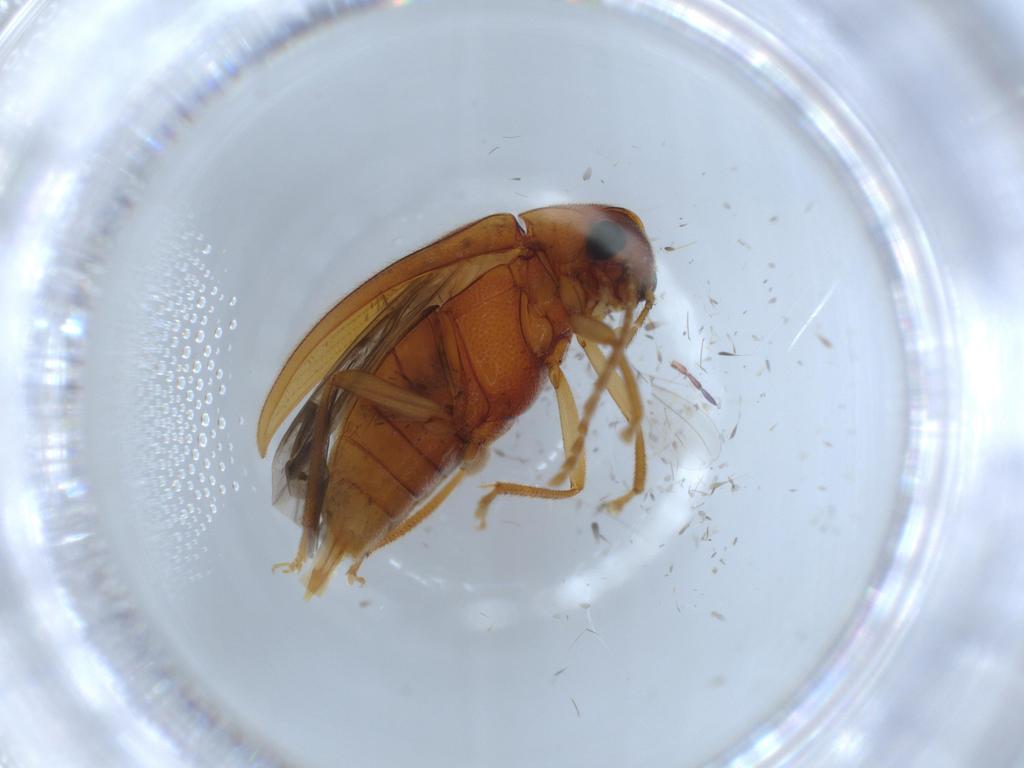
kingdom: Animalia
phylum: Arthropoda
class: Insecta
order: Coleoptera
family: Ptilodactylidae
